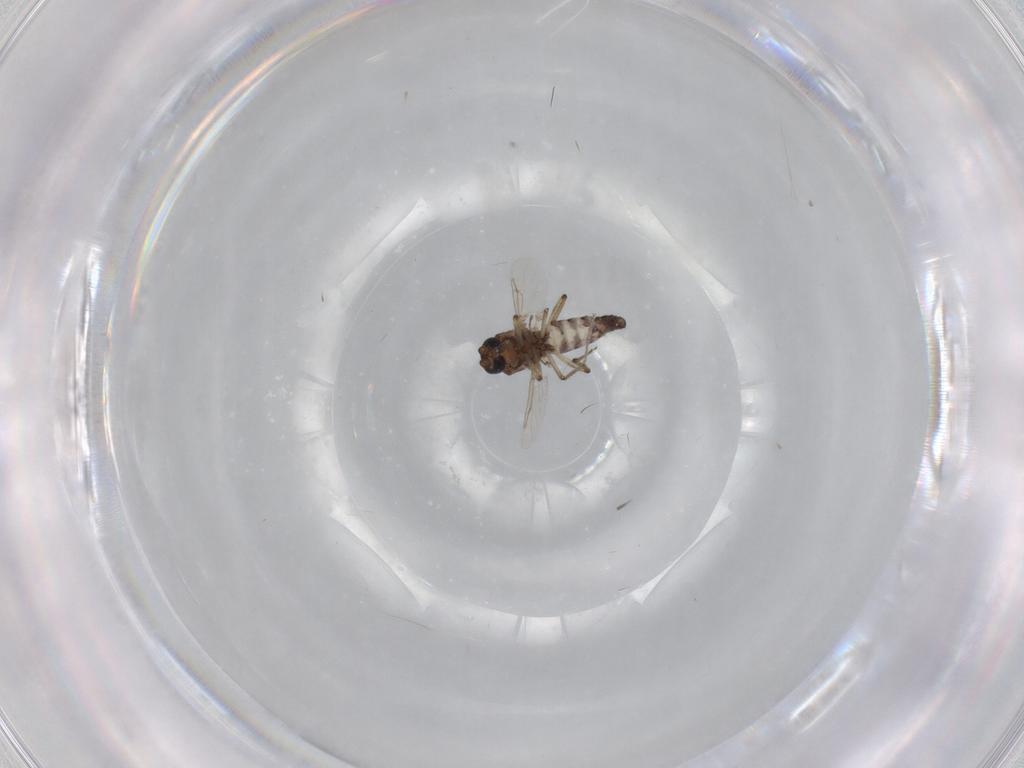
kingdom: Animalia
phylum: Arthropoda
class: Insecta
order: Diptera
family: Ceratopogonidae
